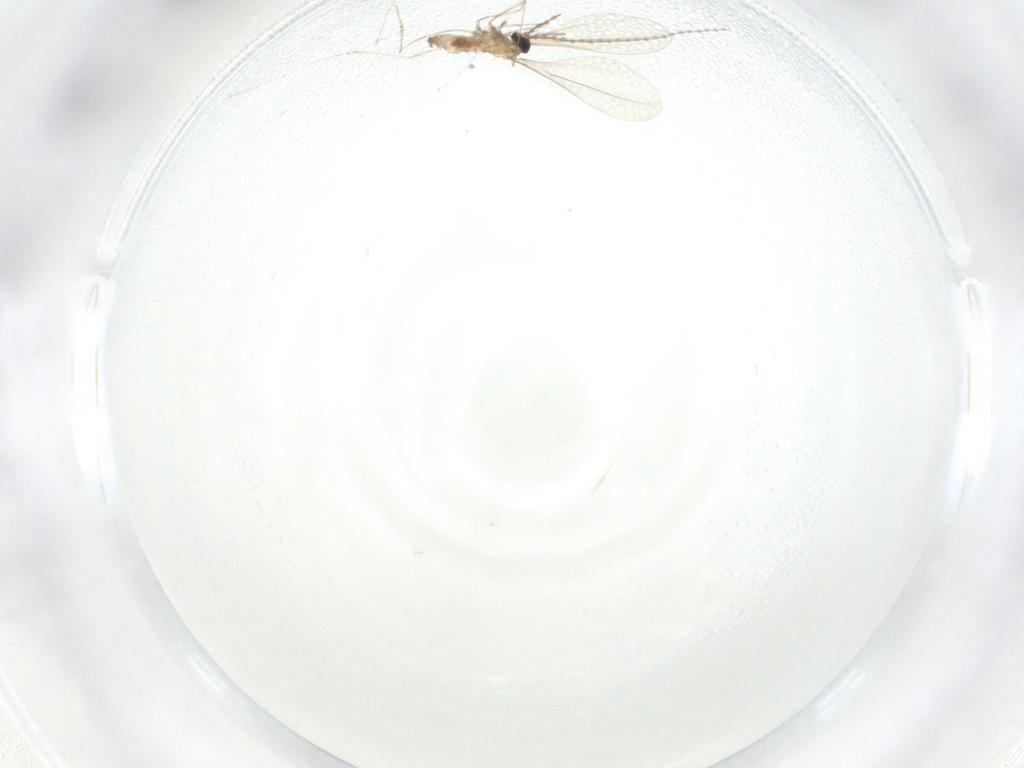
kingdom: Animalia
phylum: Arthropoda
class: Insecta
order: Diptera
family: Cecidomyiidae
